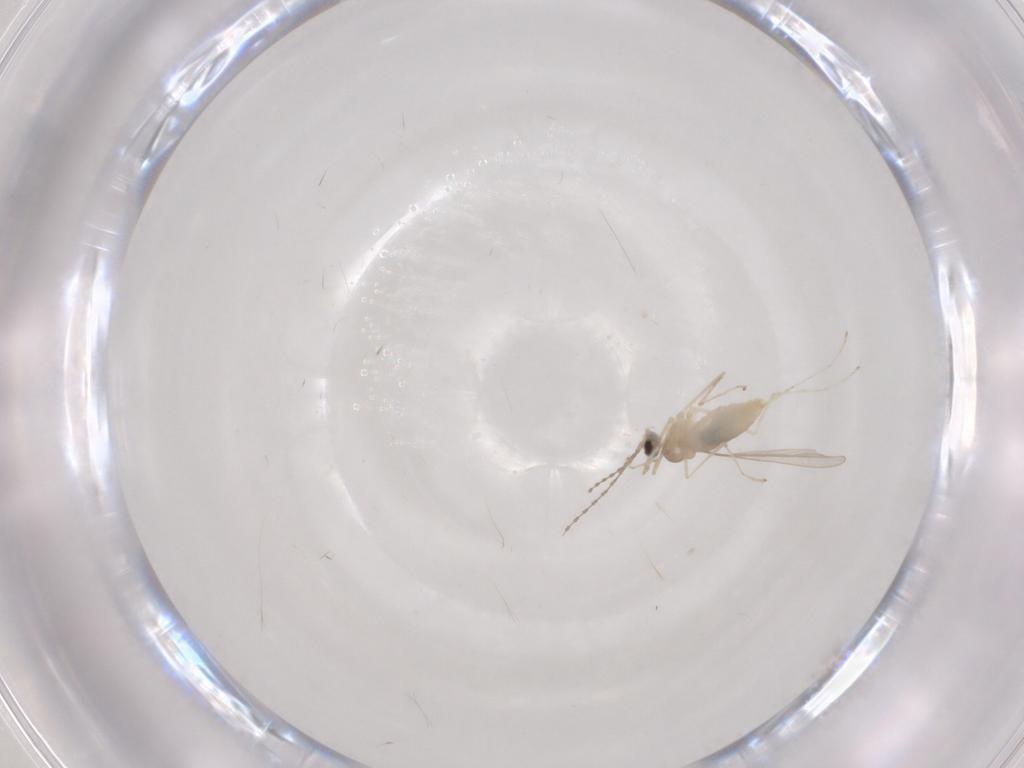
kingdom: Animalia
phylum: Arthropoda
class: Insecta
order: Diptera
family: Cecidomyiidae
